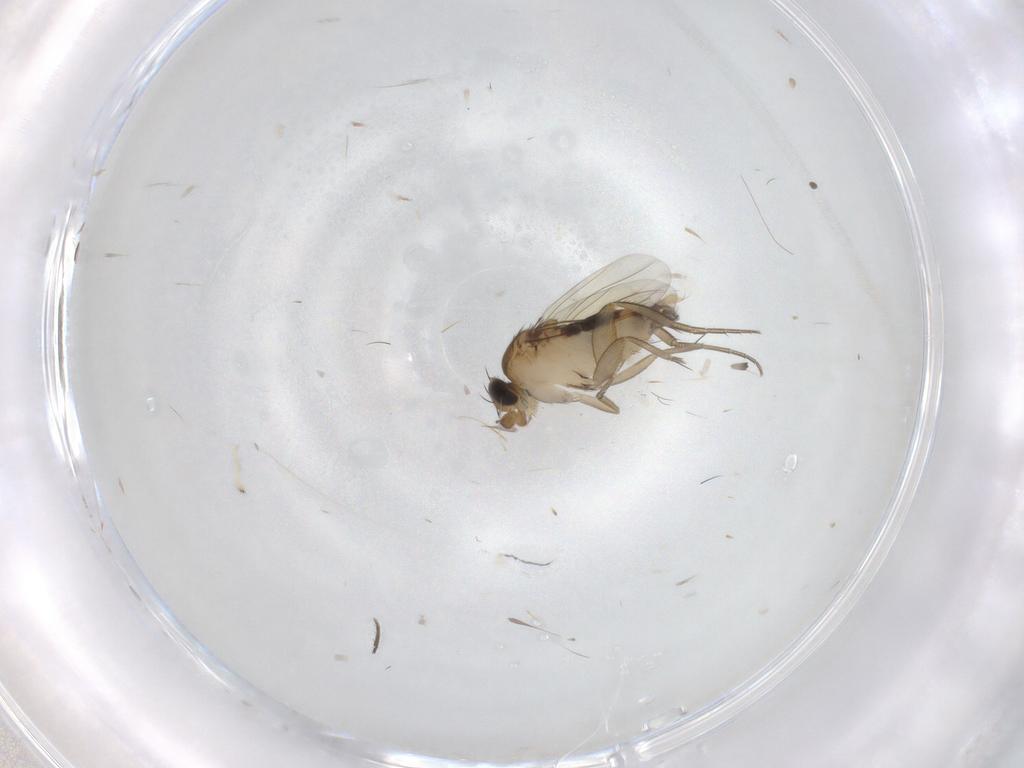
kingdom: Animalia
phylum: Arthropoda
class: Insecta
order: Diptera
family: Phoridae
